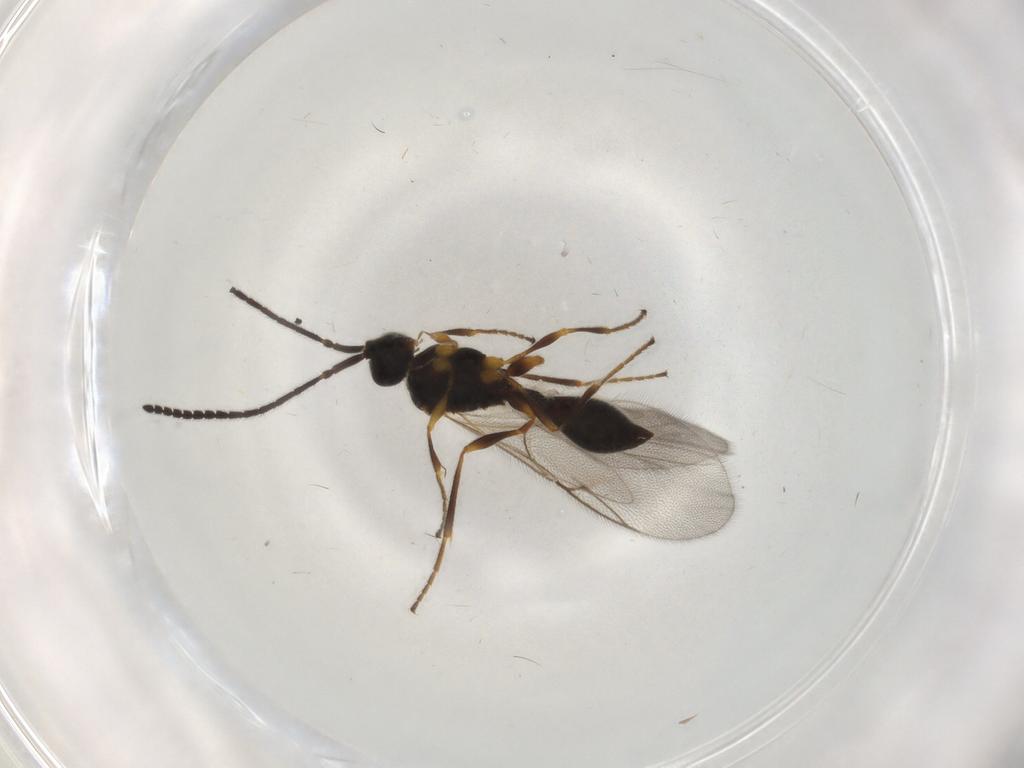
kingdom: Animalia
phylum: Arthropoda
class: Insecta
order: Hymenoptera
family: Diapriidae
